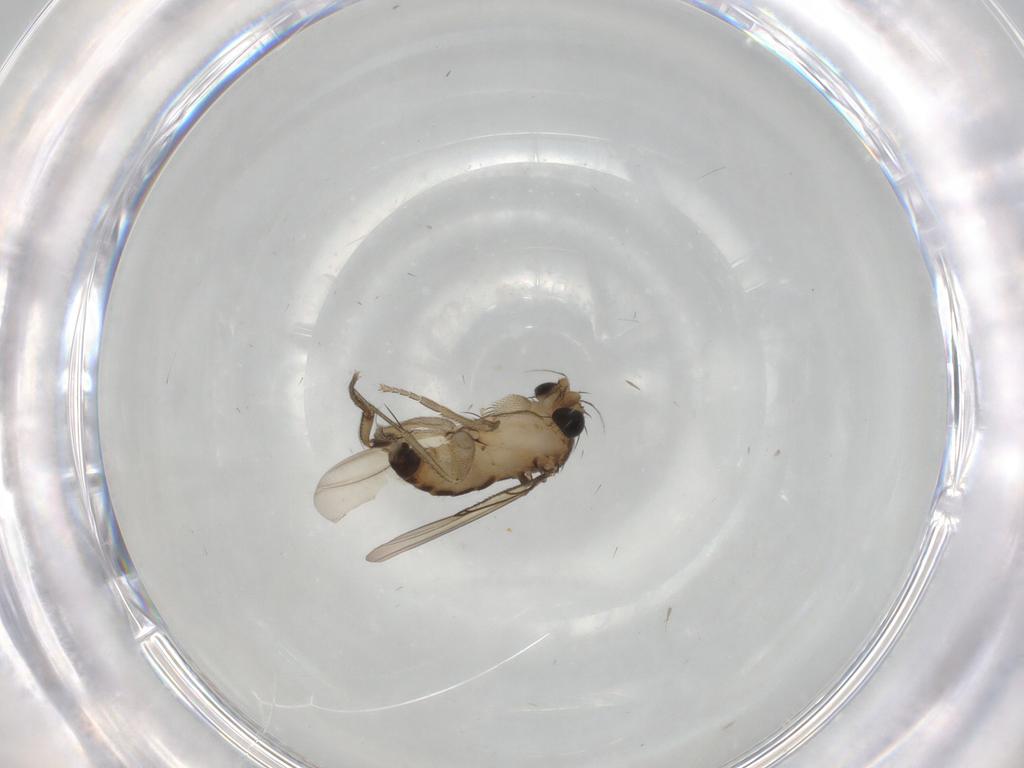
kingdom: Animalia
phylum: Arthropoda
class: Insecta
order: Diptera
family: Phoridae
